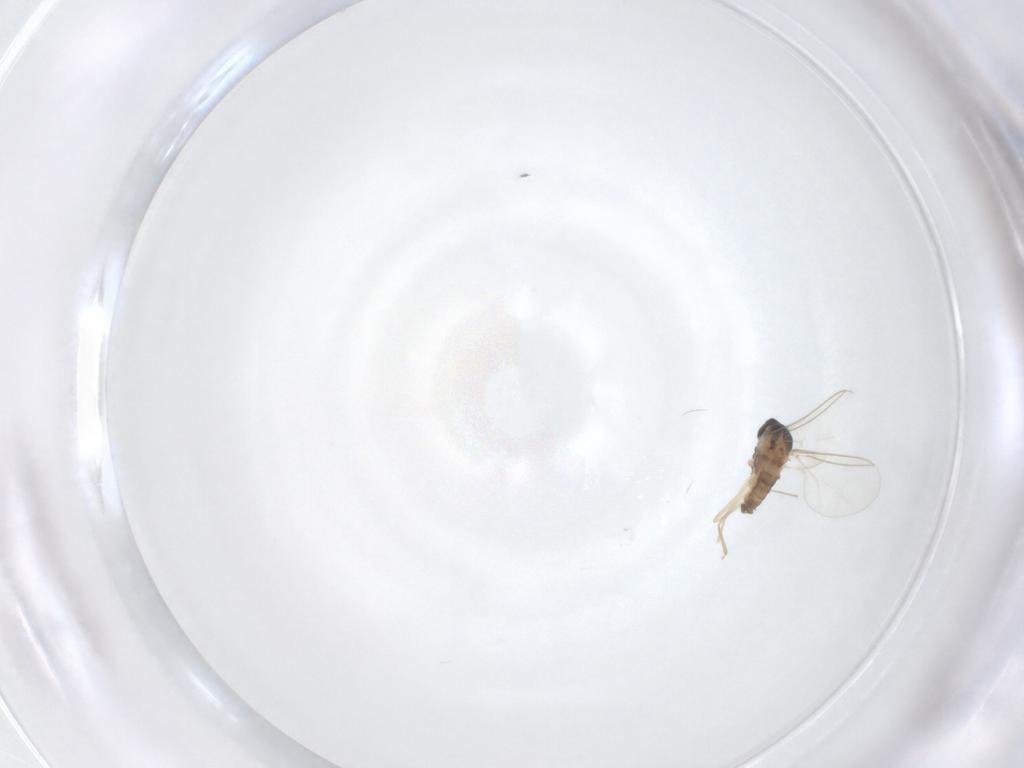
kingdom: Animalia
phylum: Arthropoda
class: Insecta
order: Diptera
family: Cecidomyiidae
